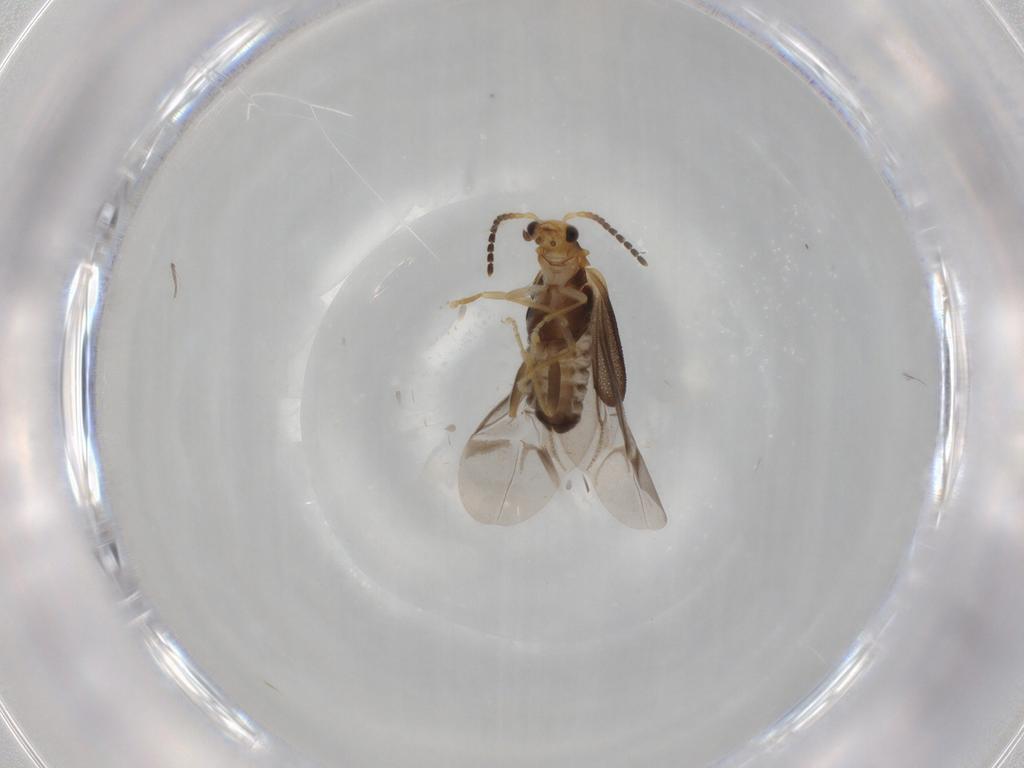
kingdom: Animalia
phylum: Arthropoda
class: Insecta
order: Coleoptera
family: Cantharidae
